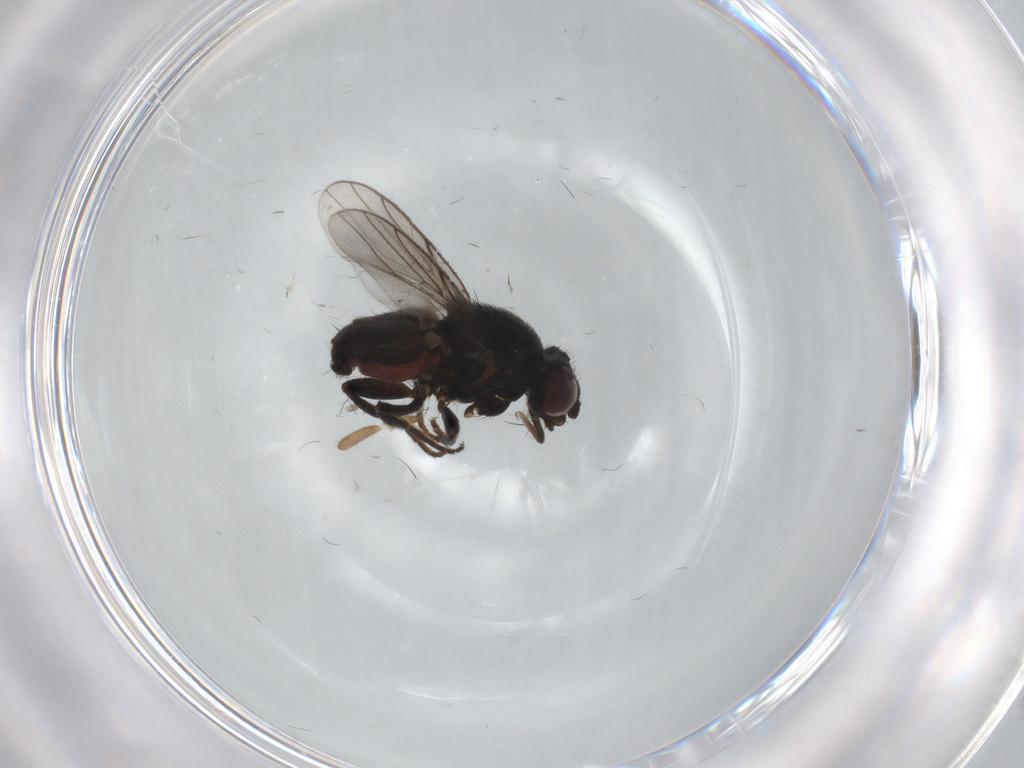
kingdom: Animalia
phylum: Arthropoda
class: Insecta
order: Diptera
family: Chloropidae
